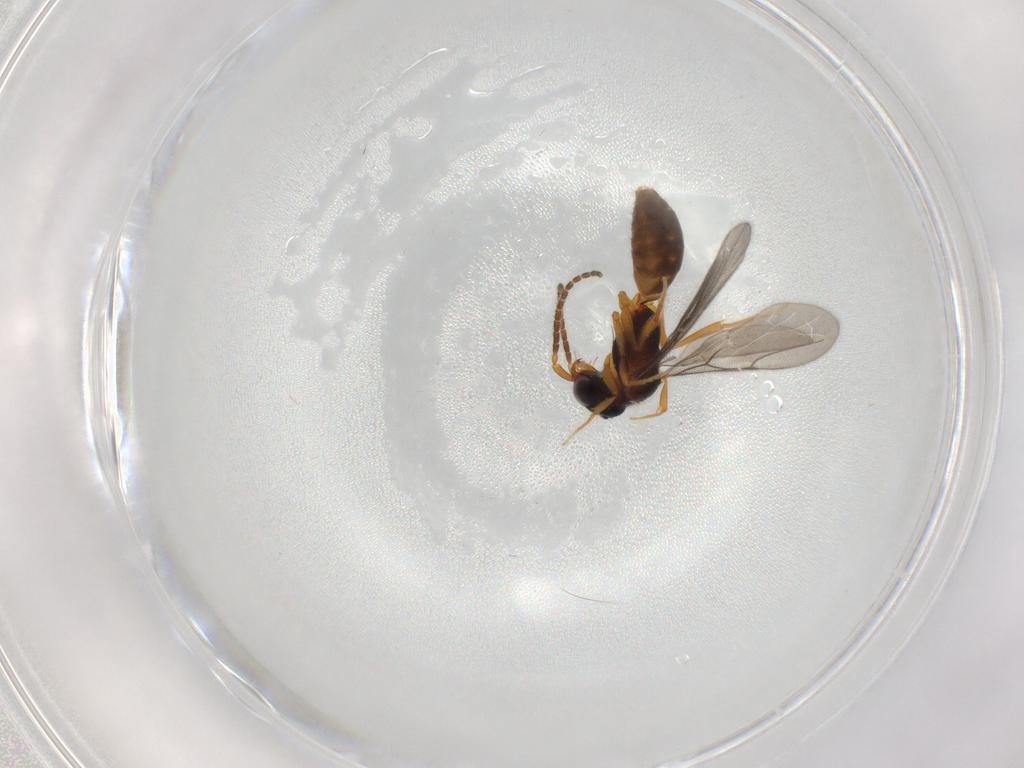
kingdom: Animalia
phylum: Arthropoda
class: Insecta
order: Hymenoptera
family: Bethylidae
